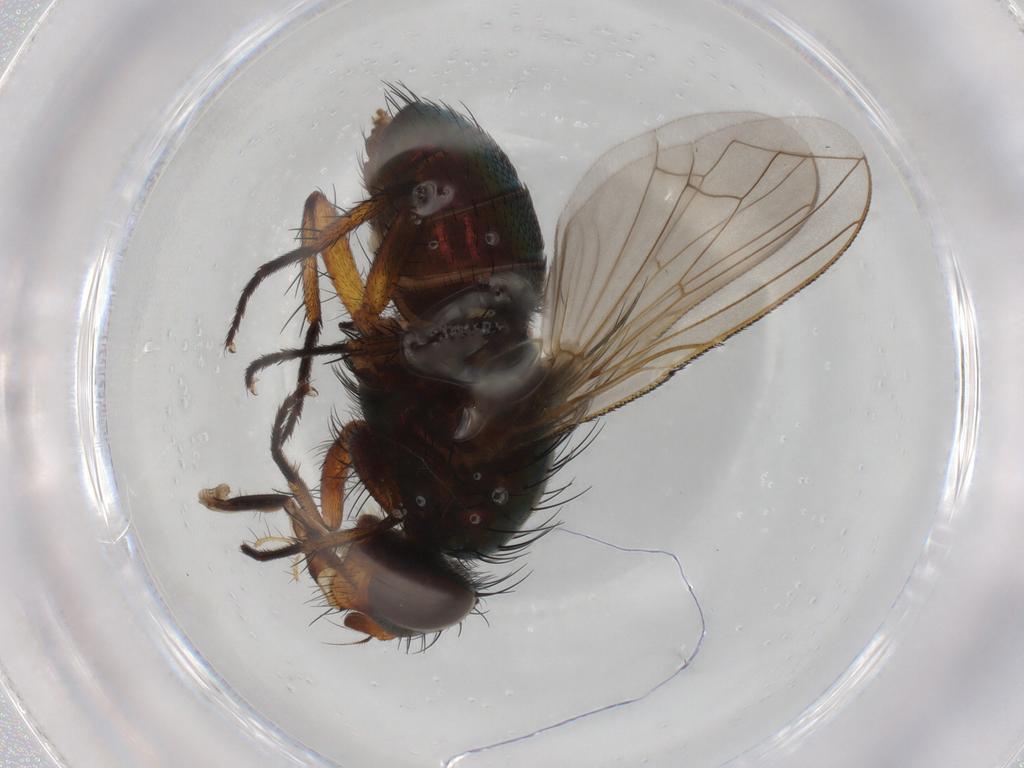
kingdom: Animalia
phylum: Arthropoda
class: Insecta
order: Diptera
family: Calliphoridae
